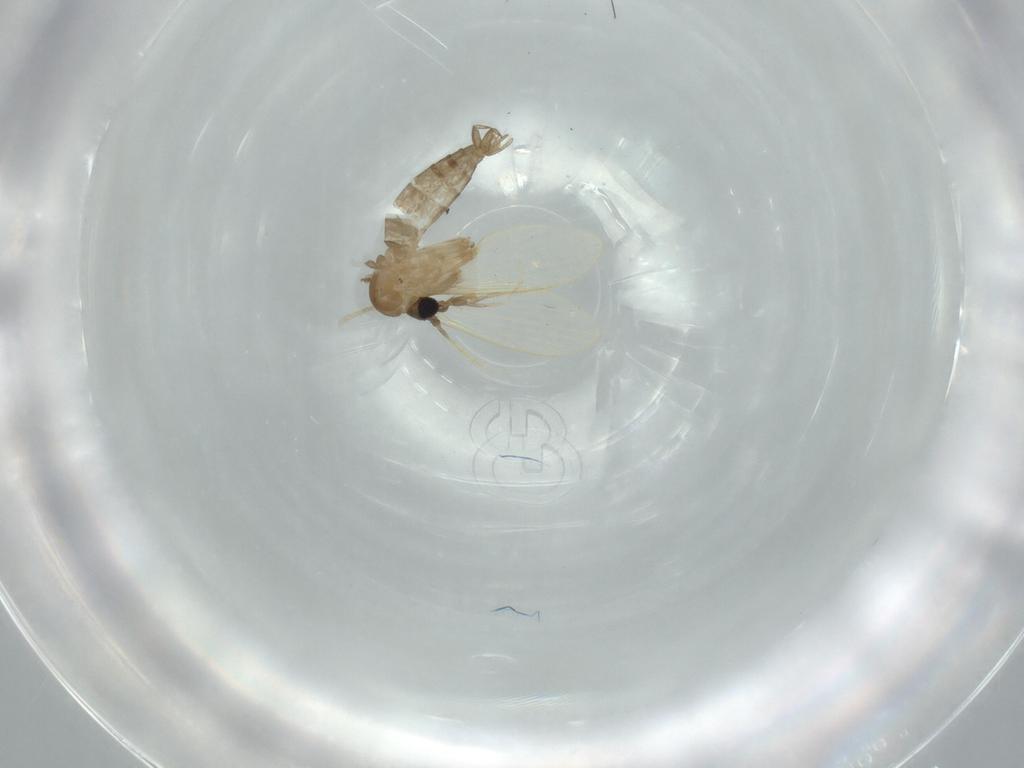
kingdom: Animalia
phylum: Arthropoda
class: Insecta
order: Diptera
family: Psychodidae
